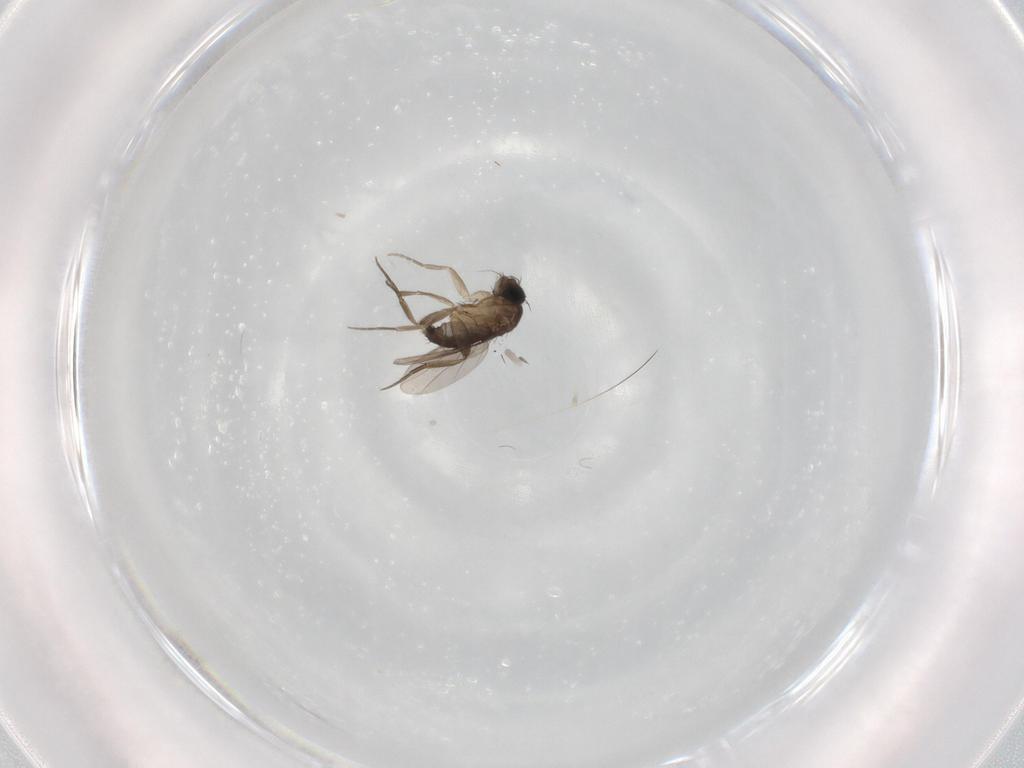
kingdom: Animalia
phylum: Arthropoda
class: Insecta
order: Diptera
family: Phoridae
